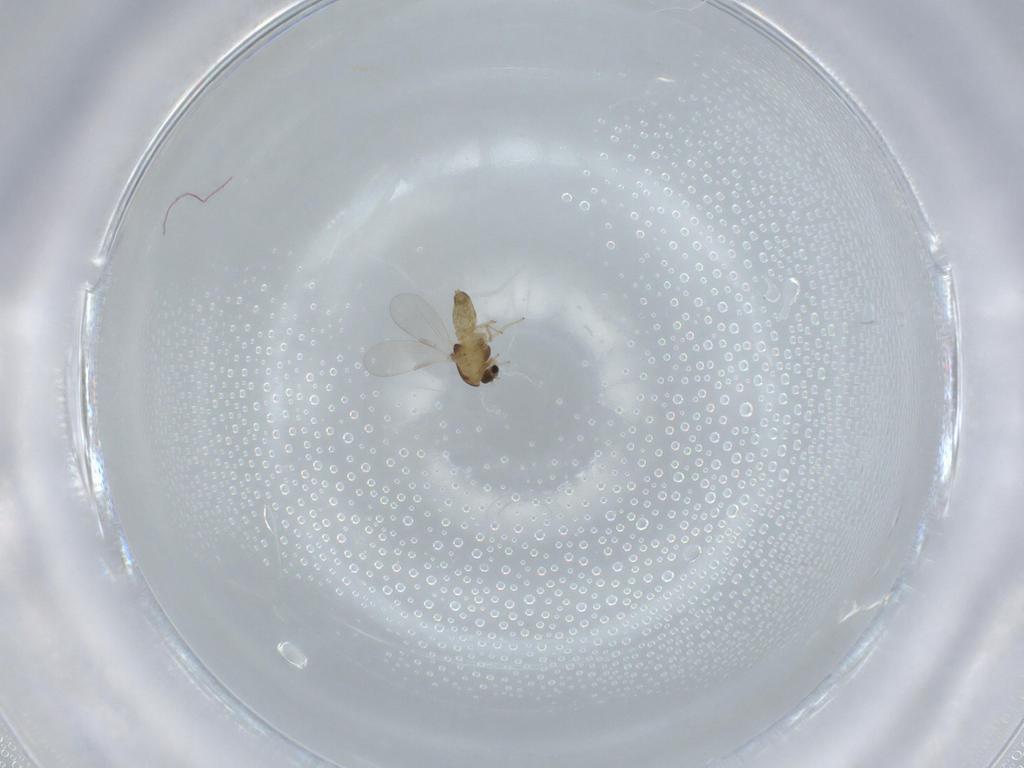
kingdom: Animalia
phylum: Arthropoda
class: Insecta
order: Diptera
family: Chironomidae
